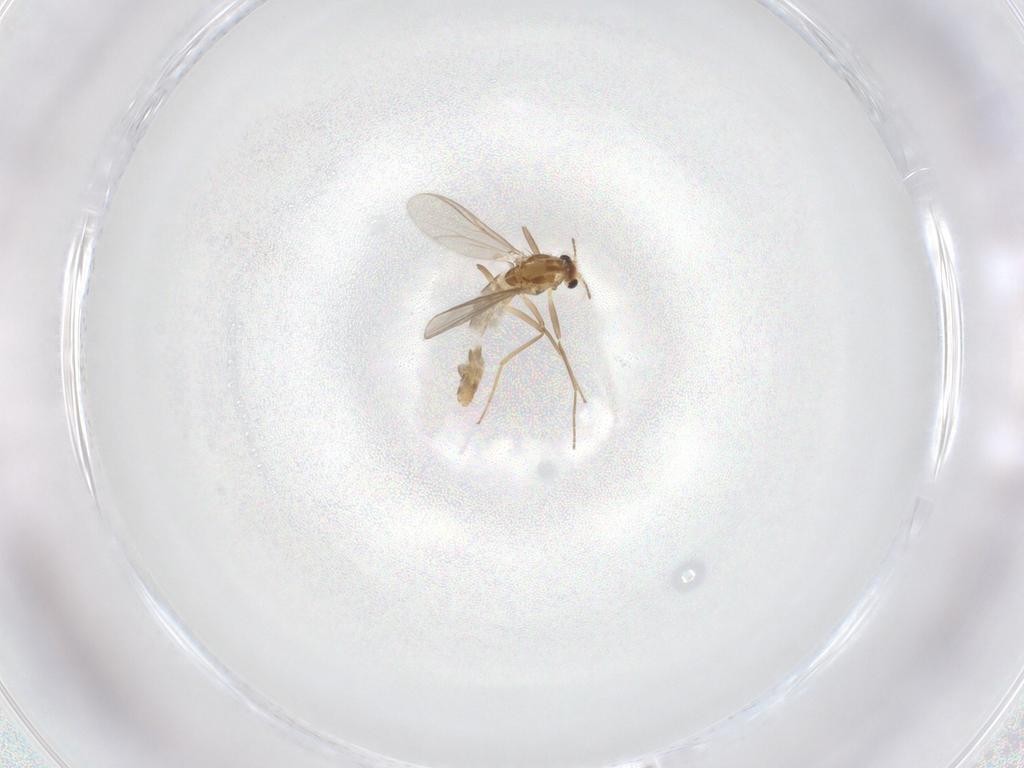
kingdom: Animalia
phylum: Arthropoda
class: Insecta
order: Diptera
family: Chironomidae
